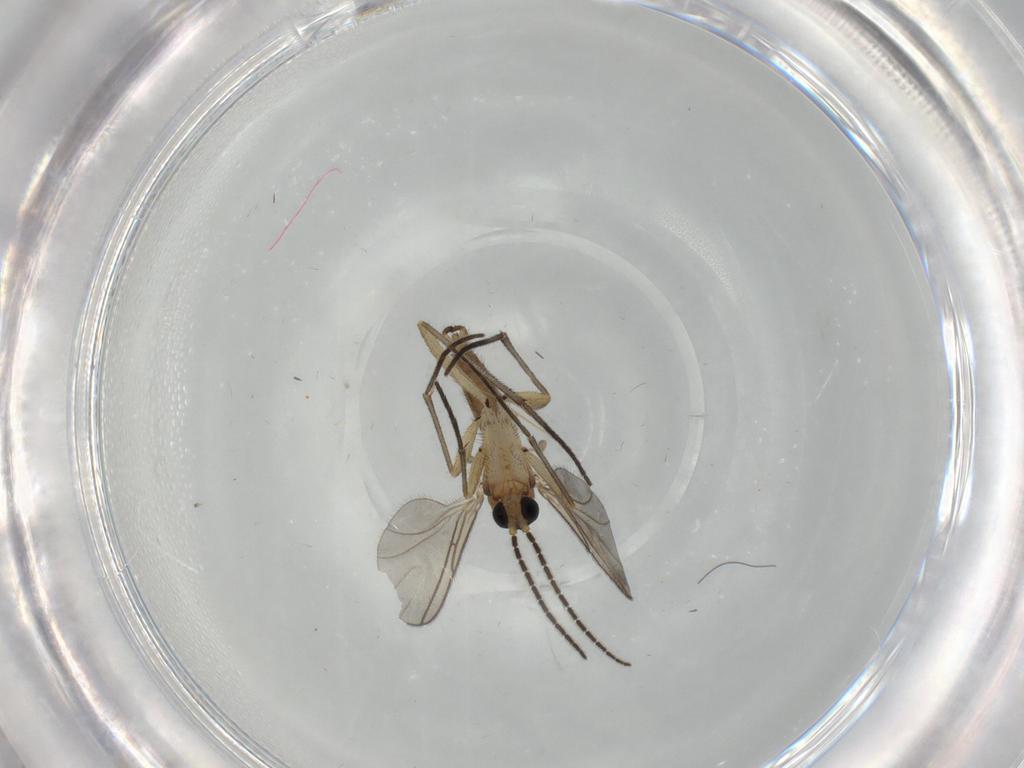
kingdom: Animalia
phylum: Arthropoda
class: Insecta
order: Diptera
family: Sciaridae
